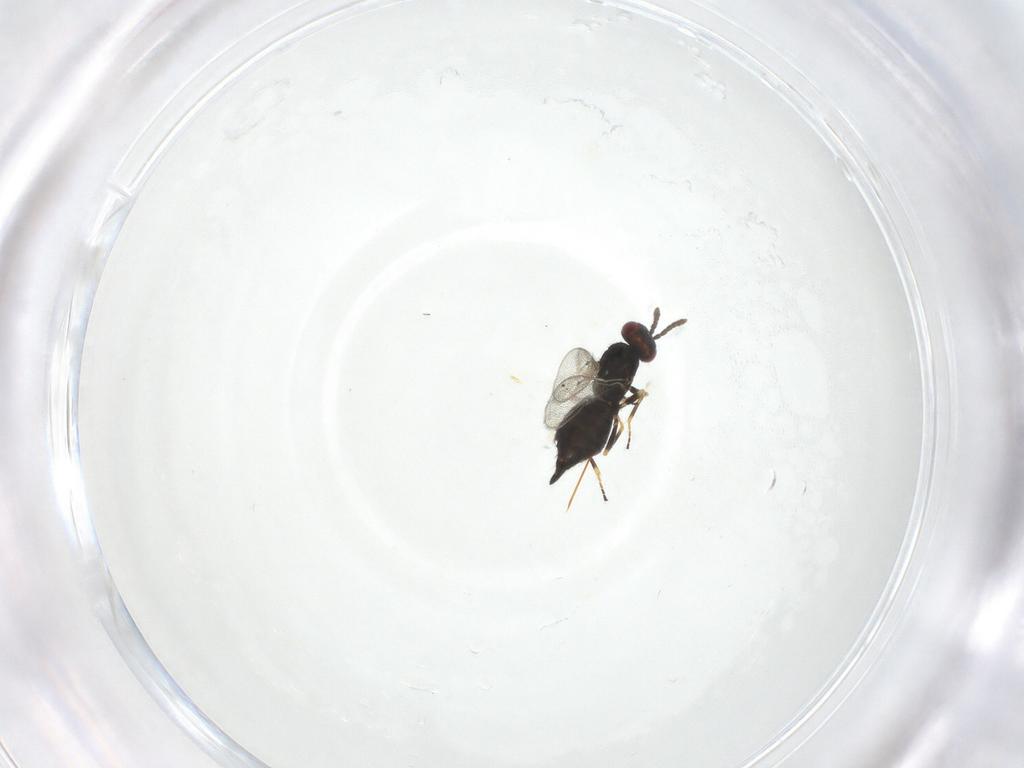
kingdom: Animalia
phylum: Arthropoda
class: Insecta
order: Hymenoptera
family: Eulophidae
